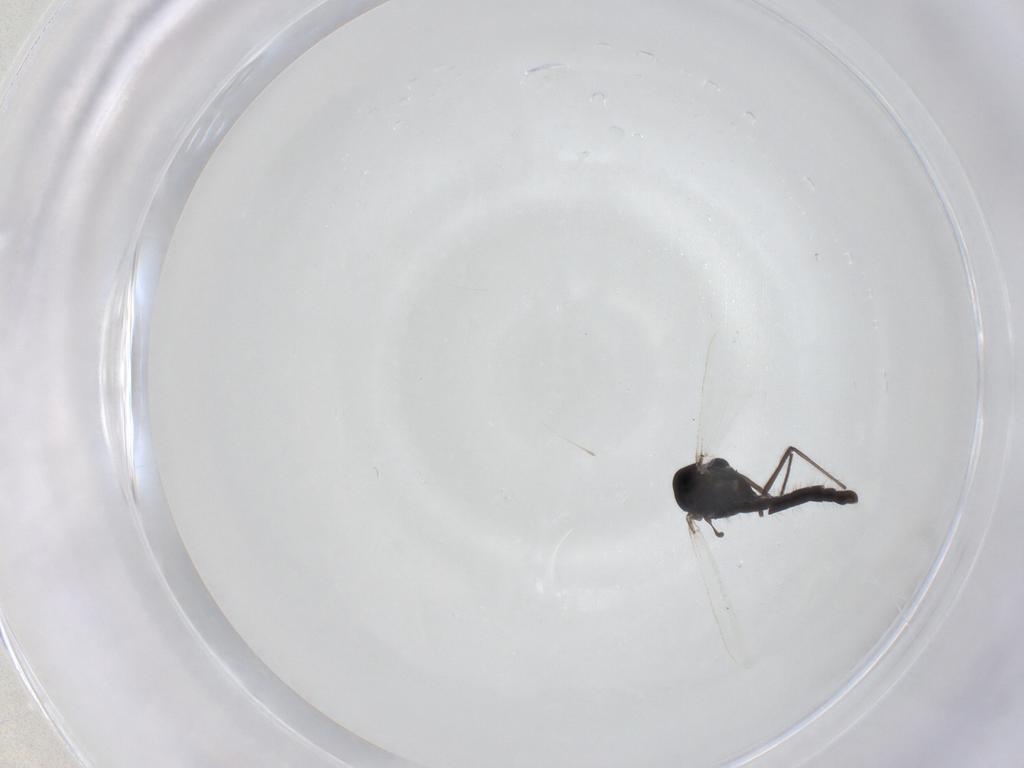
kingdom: Animalia
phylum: Arthropoda
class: Insecta
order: Diptera
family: Chironomidae
